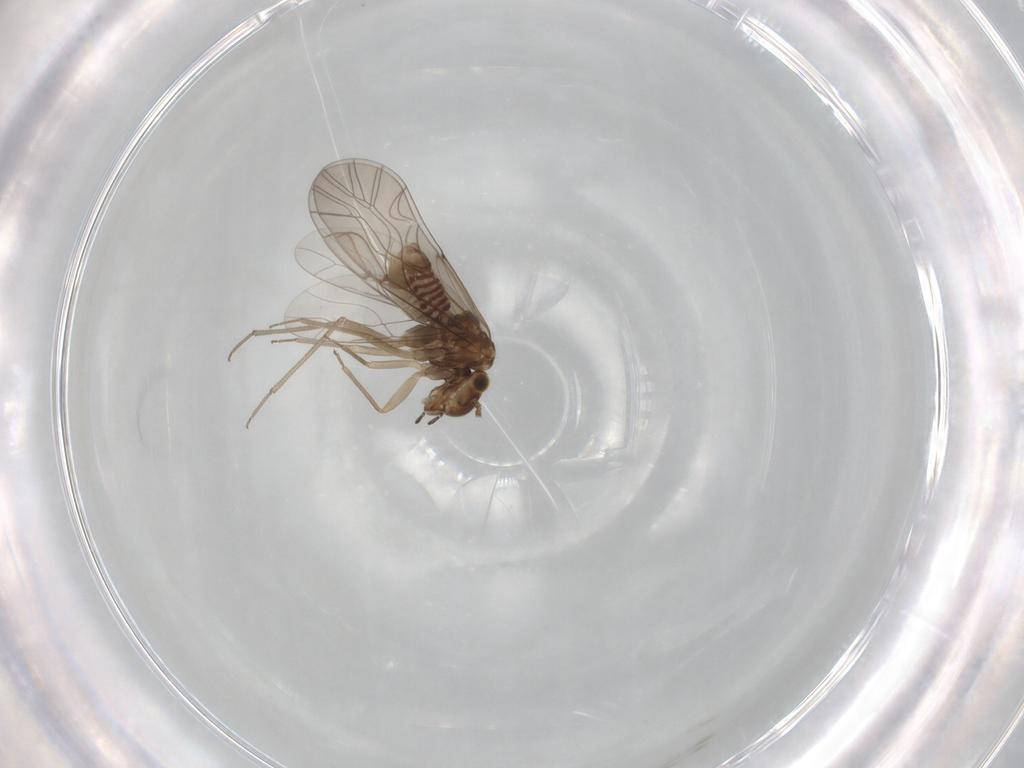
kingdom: Animalia
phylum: Arthropoda
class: Insecta
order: Psocodea
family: Lachesillidae
